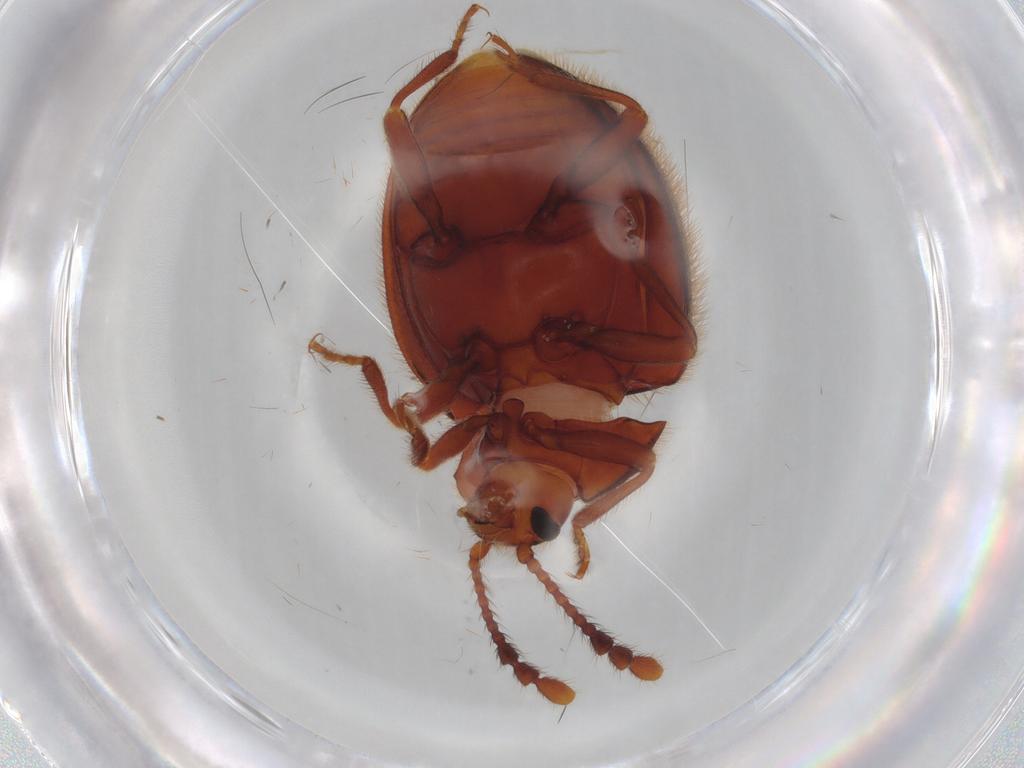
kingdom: Animalia
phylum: Arthropoda
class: Insecta
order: Coleoptera
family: Endomychidae
